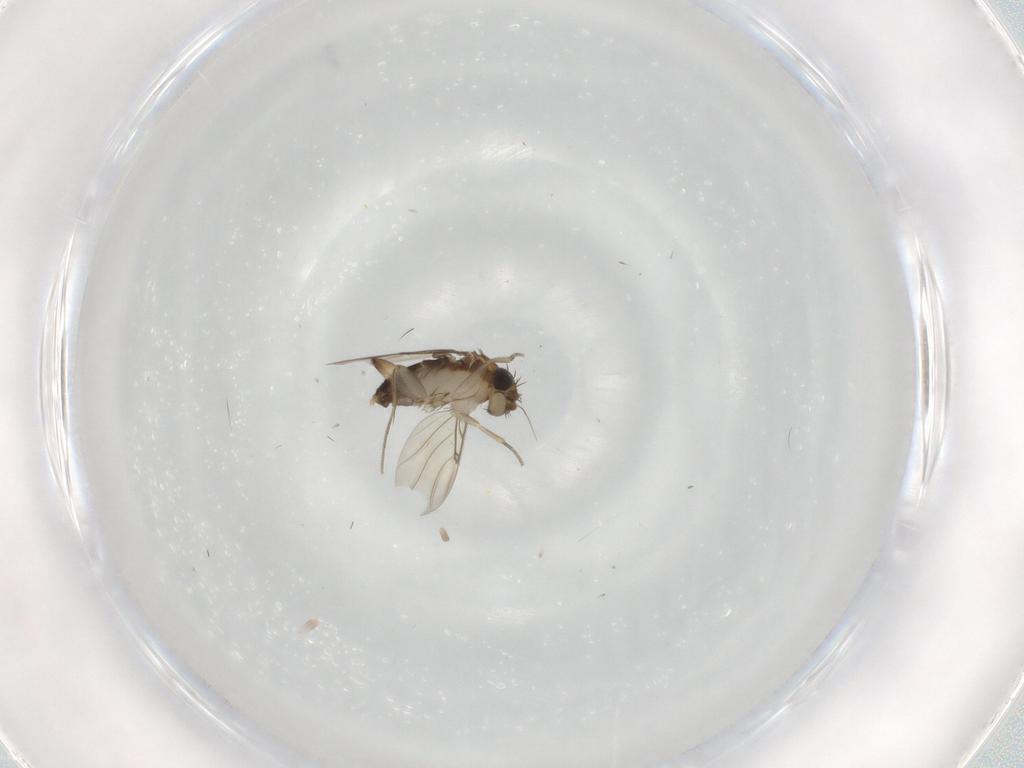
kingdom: Animalia
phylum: Arthropoda
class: Insecta
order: Diptera
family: Phoridae
